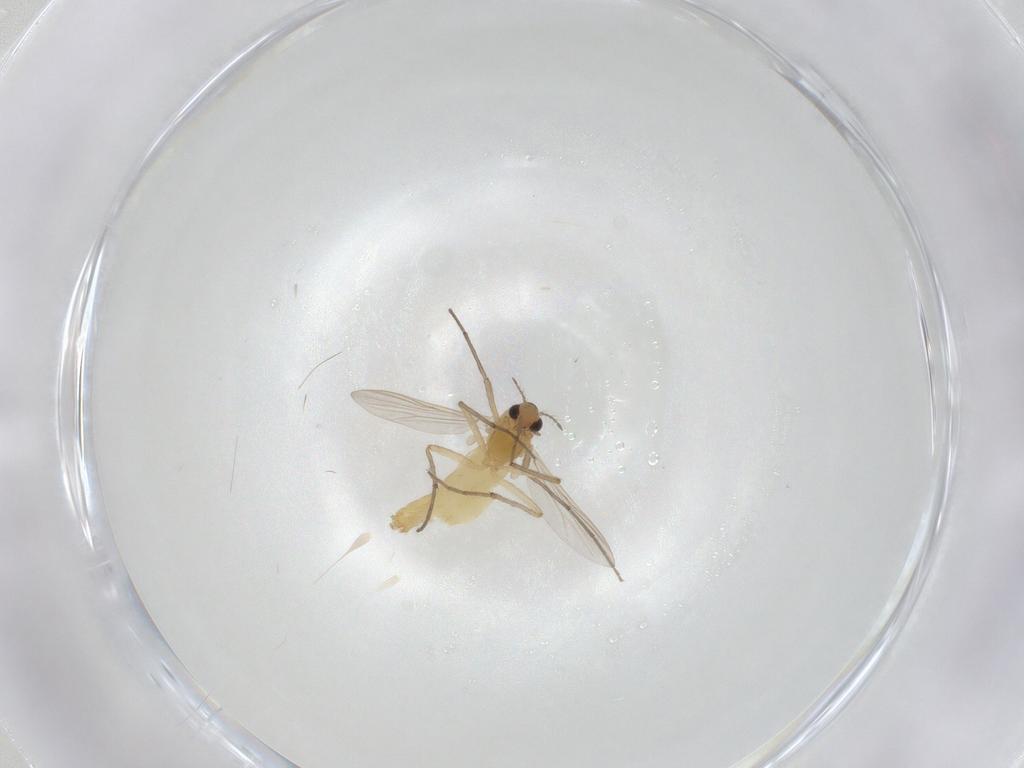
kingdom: Animalia
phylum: Arthropoda
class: Insecta
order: Diptera
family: Chironomidae
